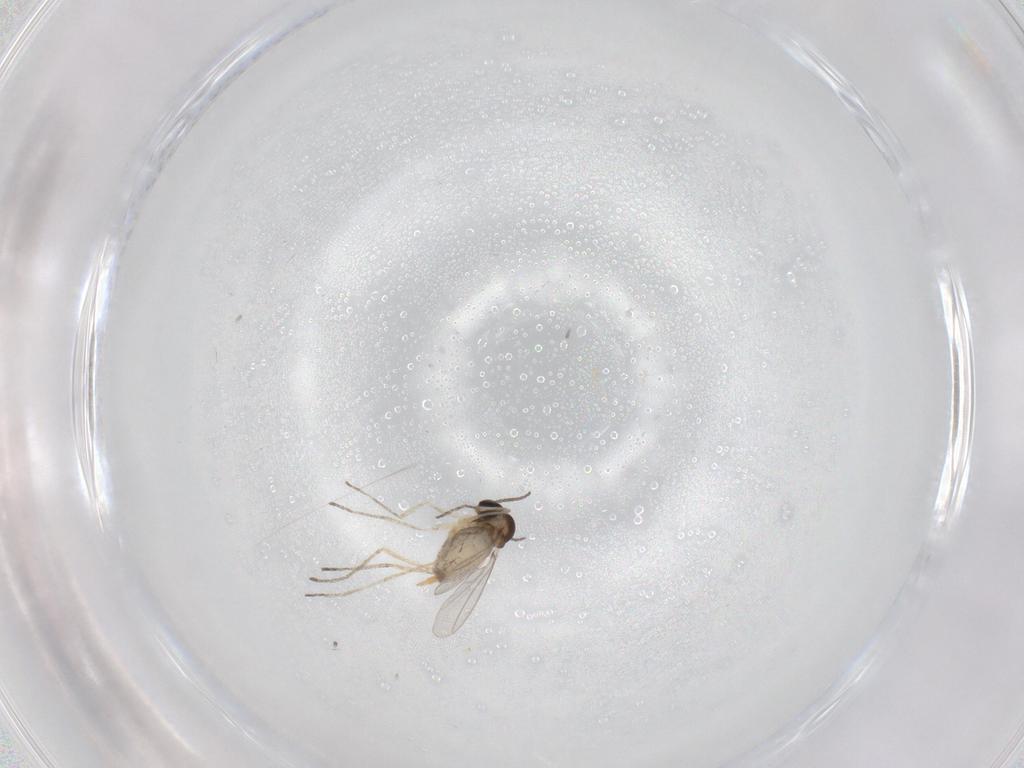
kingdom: Animalia
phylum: Arthropoda
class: Insecta
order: Diptera
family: Cecidomyiidae
